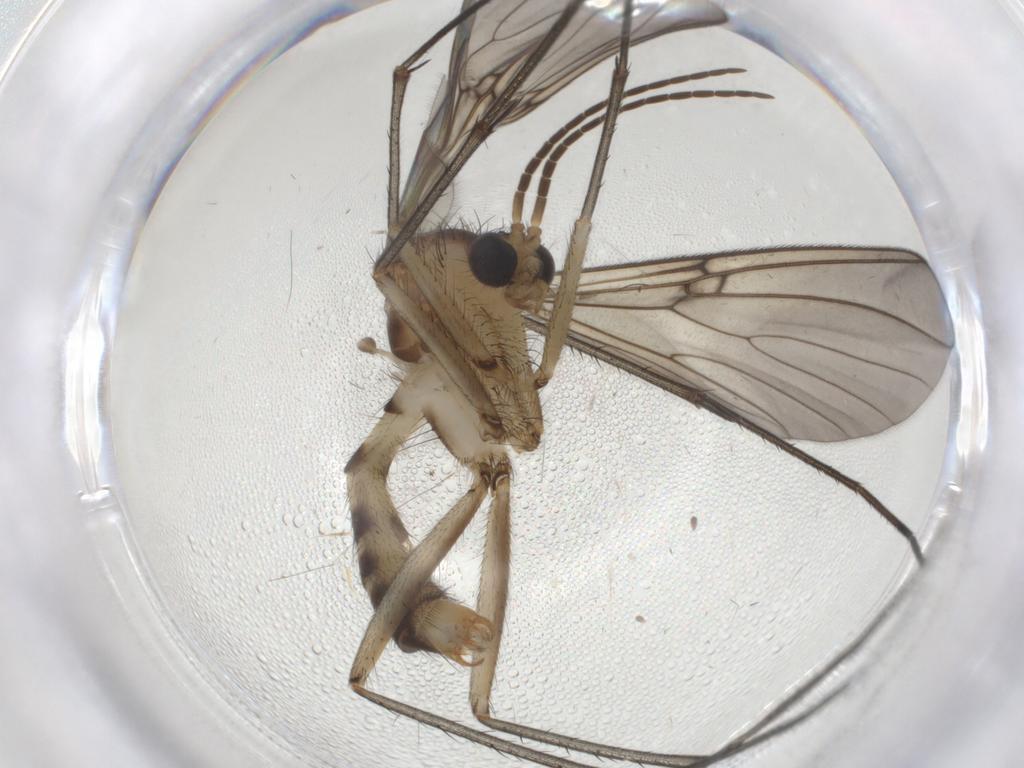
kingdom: Animalia
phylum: Arthropoda
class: Insecta
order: Diptera
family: Mycetophilidae
